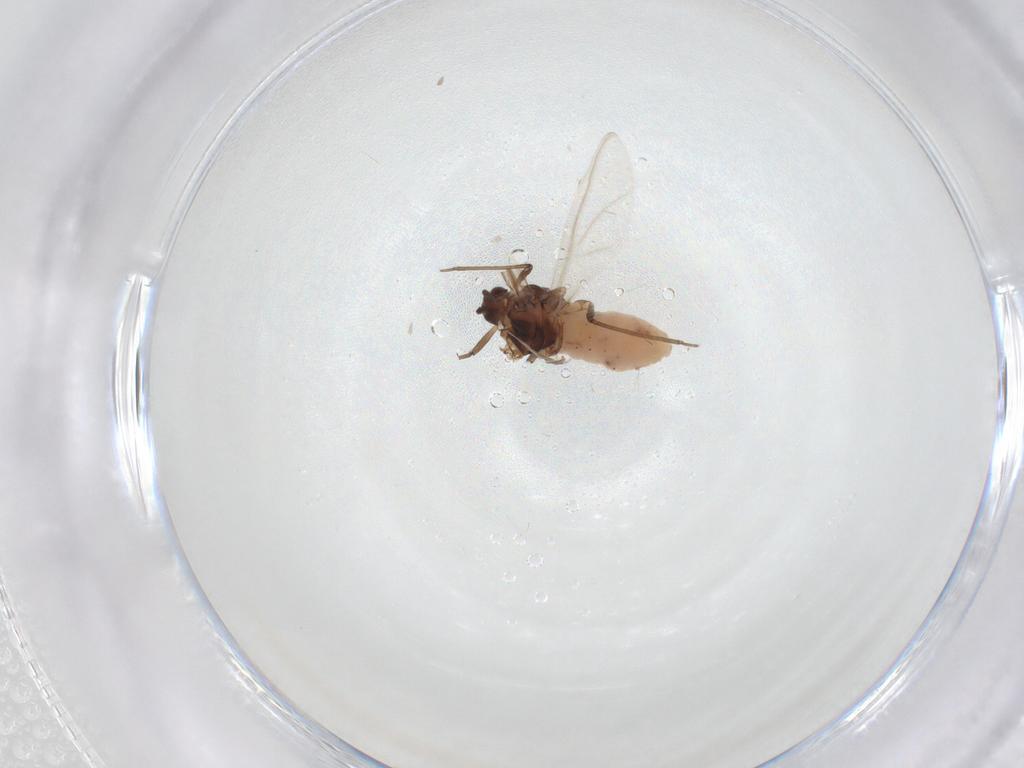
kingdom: Animalia
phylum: Arthropoda
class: Insecta
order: Hemiptera
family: Aphididae
